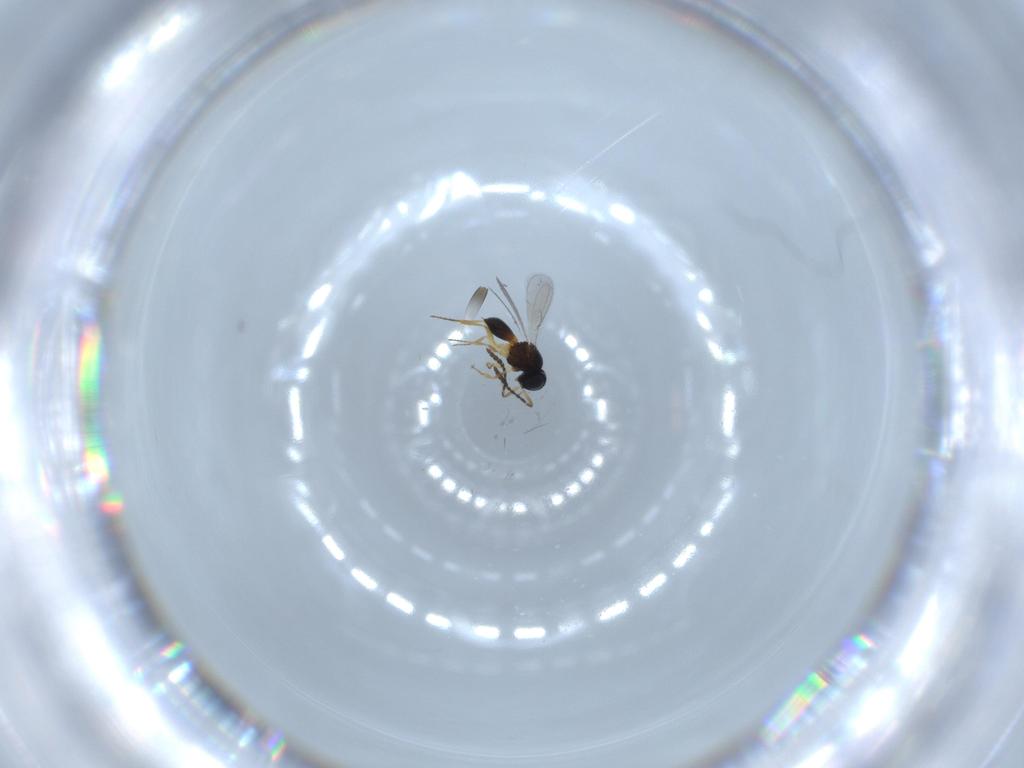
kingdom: Animalia
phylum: Arthropoda
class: Insecta
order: Hymenoptera
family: Scelionidae
